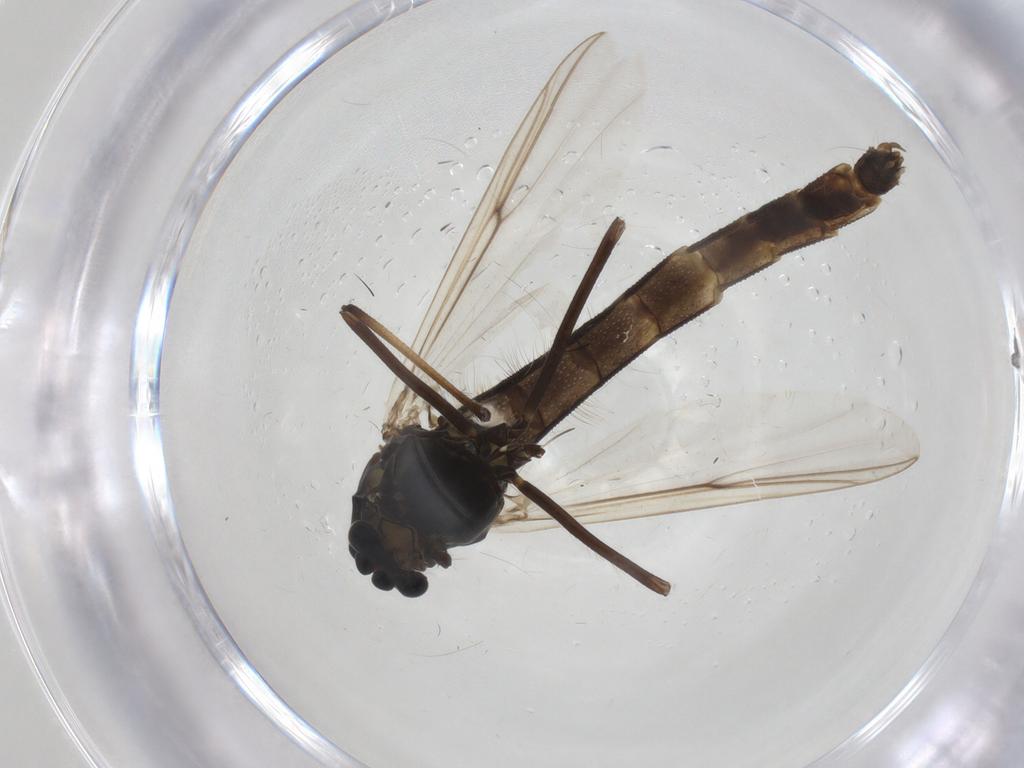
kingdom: Animalia
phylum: Arthropoda
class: Insecta
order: Diptera
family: Chironomidae
